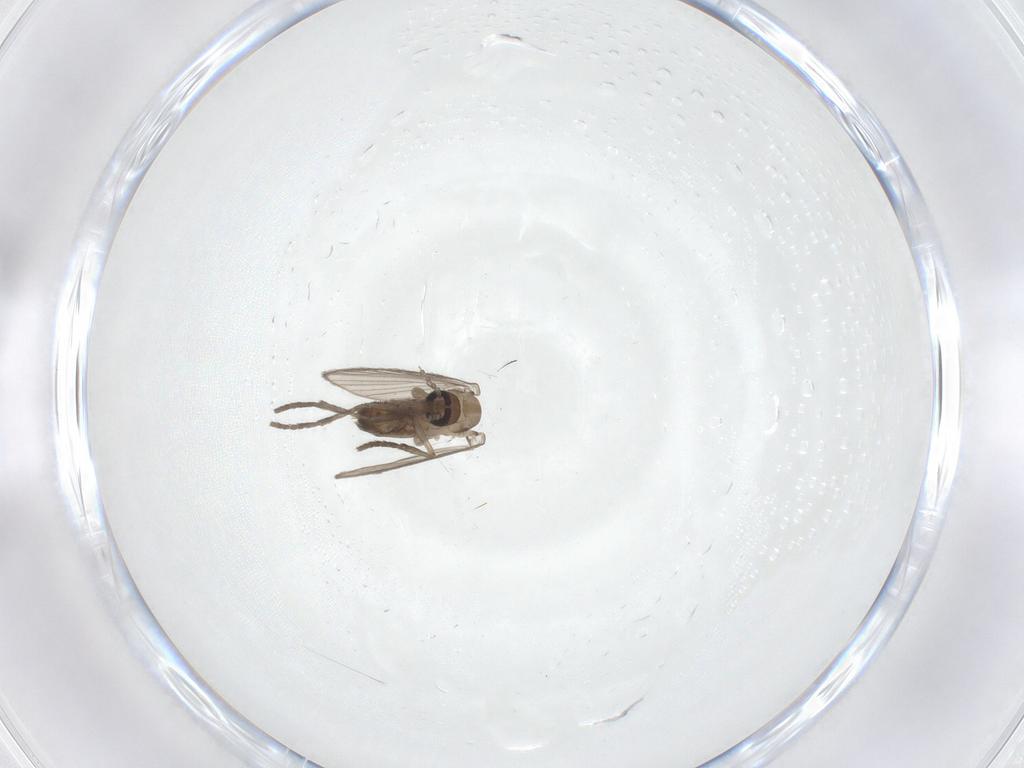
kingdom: Animalia
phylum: Arthropoda
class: Insecta
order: Diptera
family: Psychodidae
